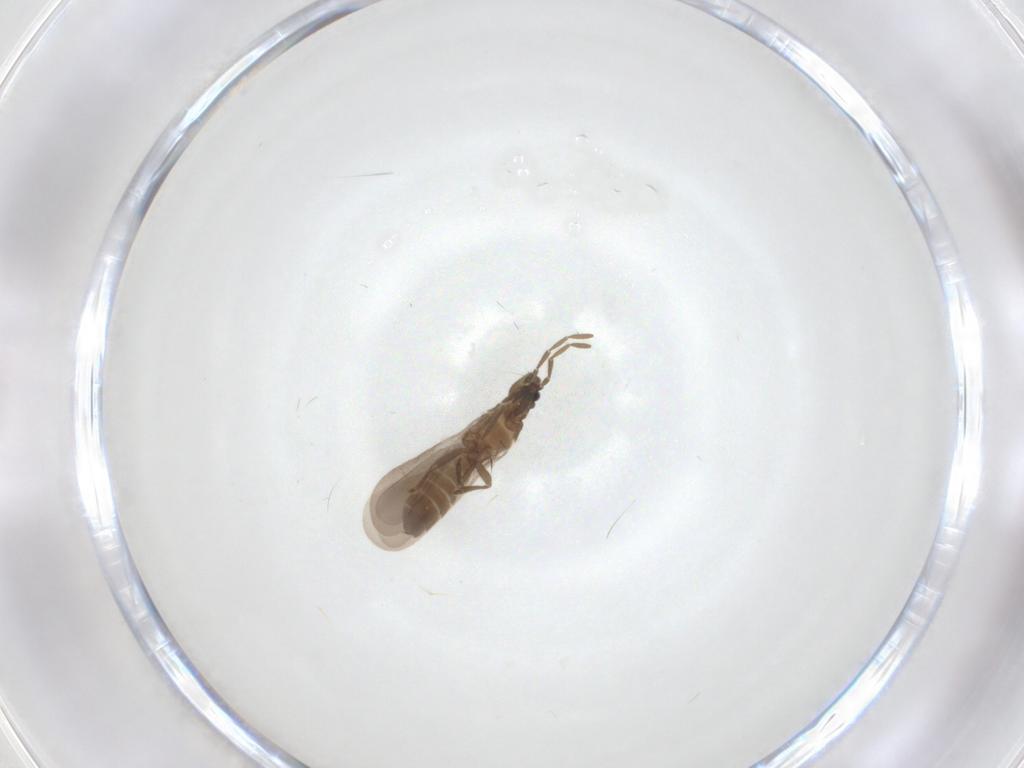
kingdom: Animalia
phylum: Arthropoda
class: Insecta
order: Hemiptera
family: Enicocephalidae
